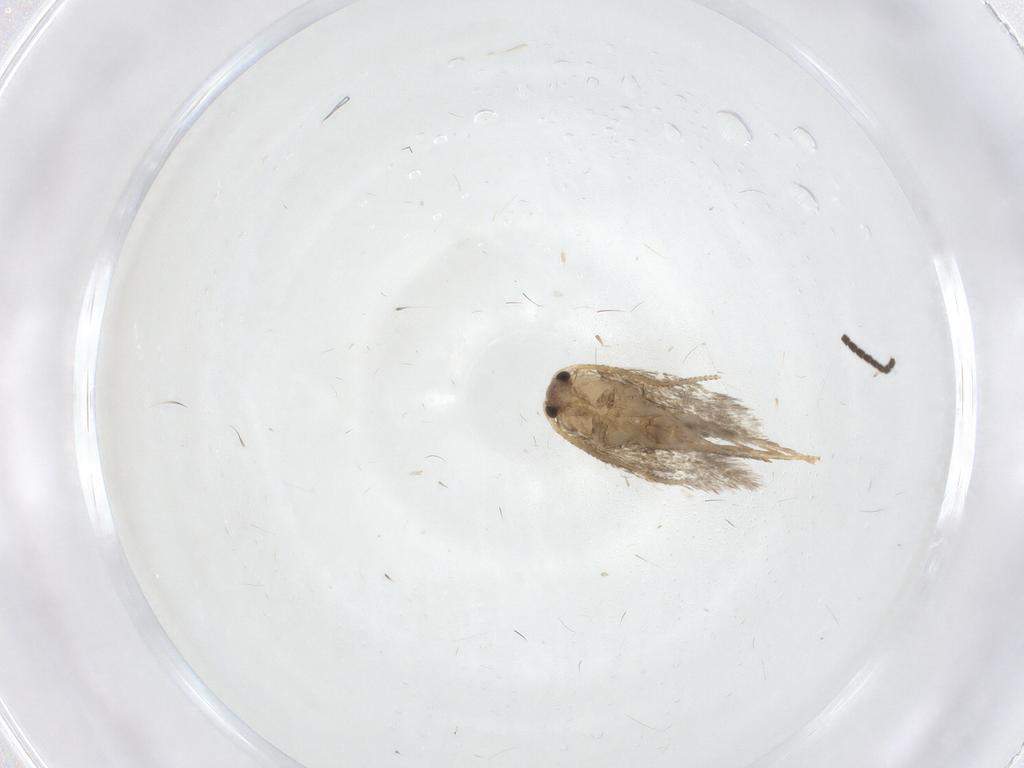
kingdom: Animalia
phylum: Arthropoda
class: Insecta
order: Lepidoptera
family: Nepticulidae
